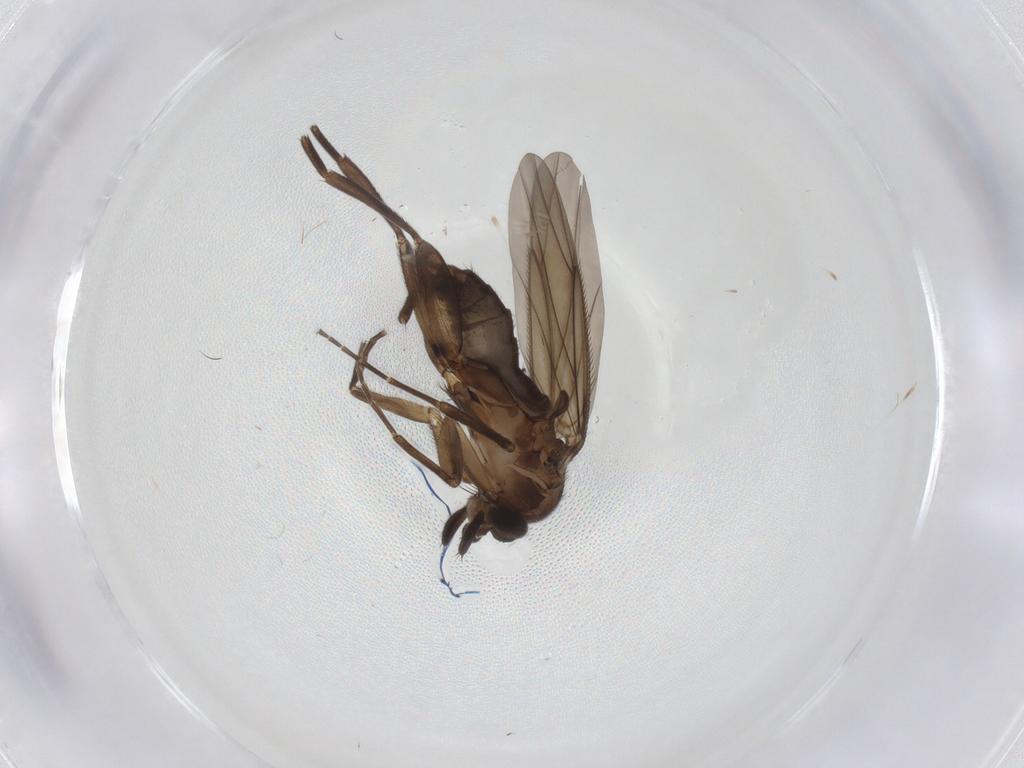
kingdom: Animalia
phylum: Arthropoda
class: Insecta
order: Diptera
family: Phoridae
